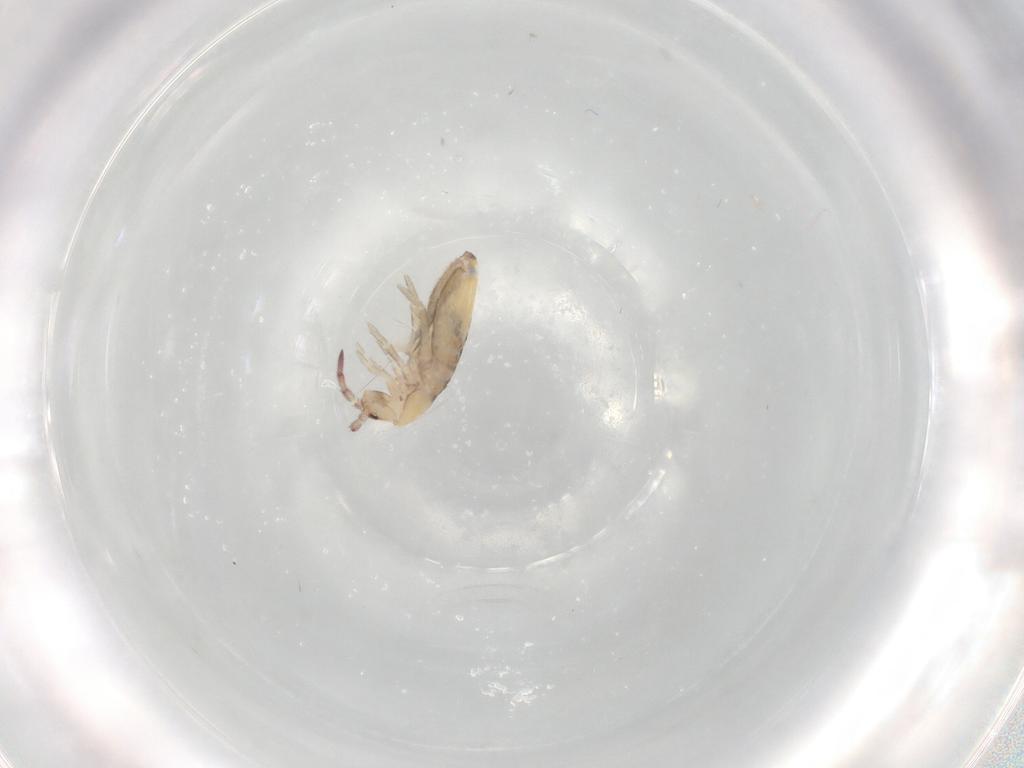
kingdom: Animalia
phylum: Arthropoda
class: Collembola
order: Entomobryomorpha
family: Entomobryidae
